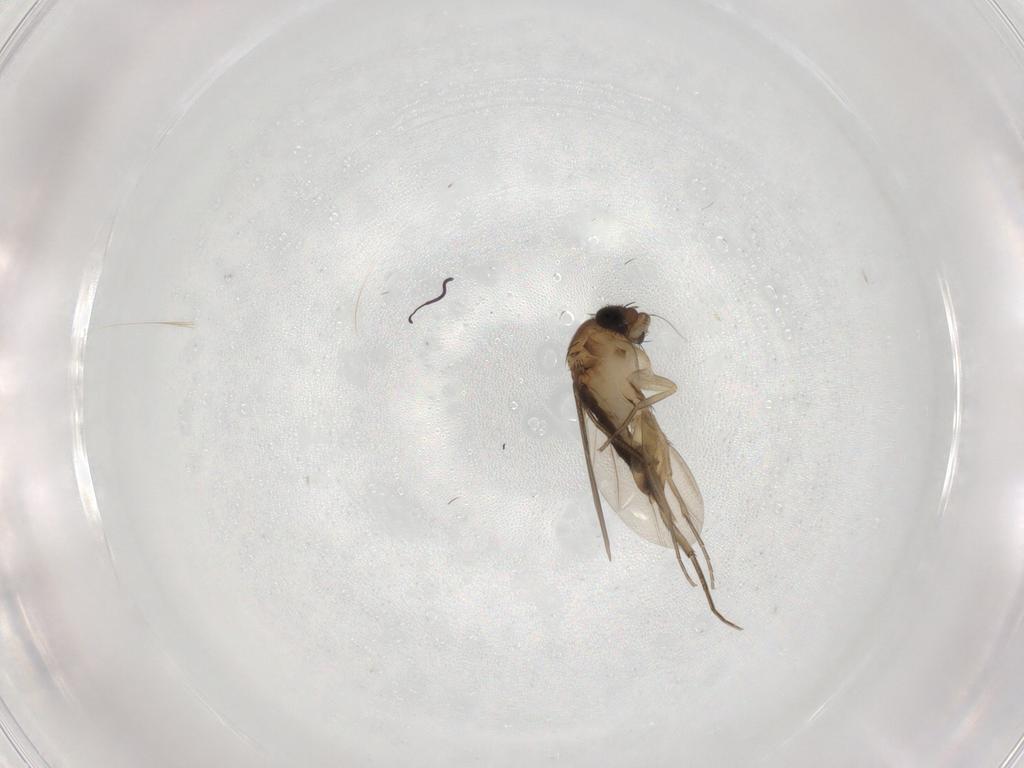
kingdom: Animalia
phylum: Arthropoda
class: Insecta
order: Diptera
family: Phoridae
